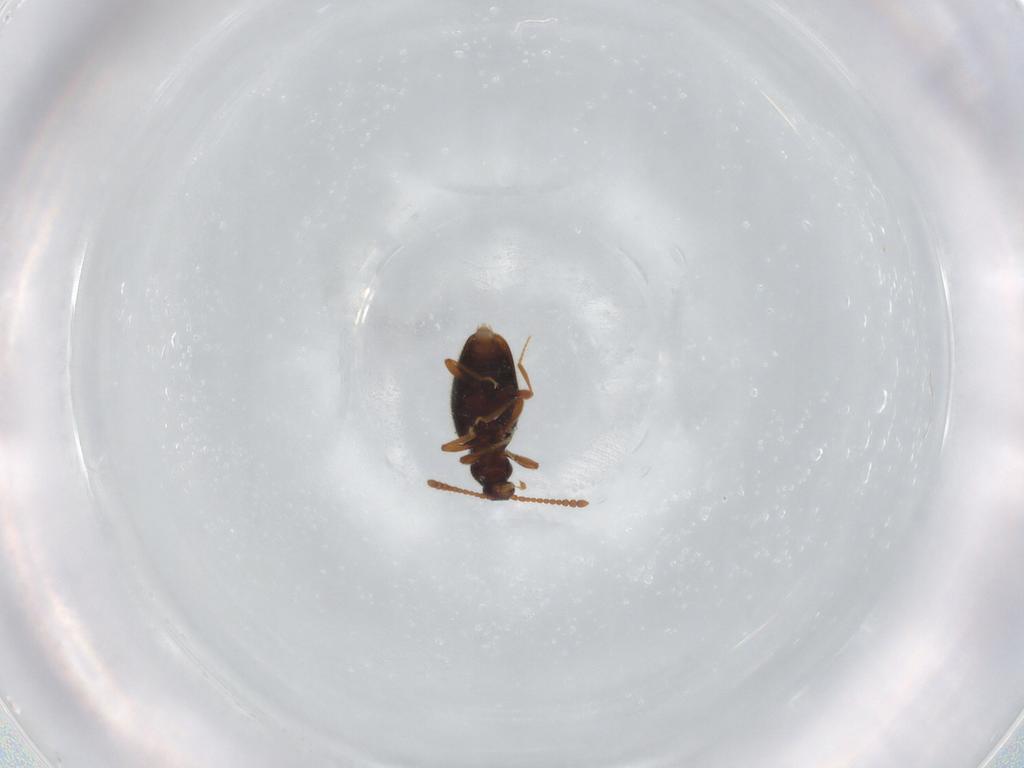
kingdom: Animalia
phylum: Arthropoda
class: Insecta
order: Coleoptera
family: Staphylinidae
